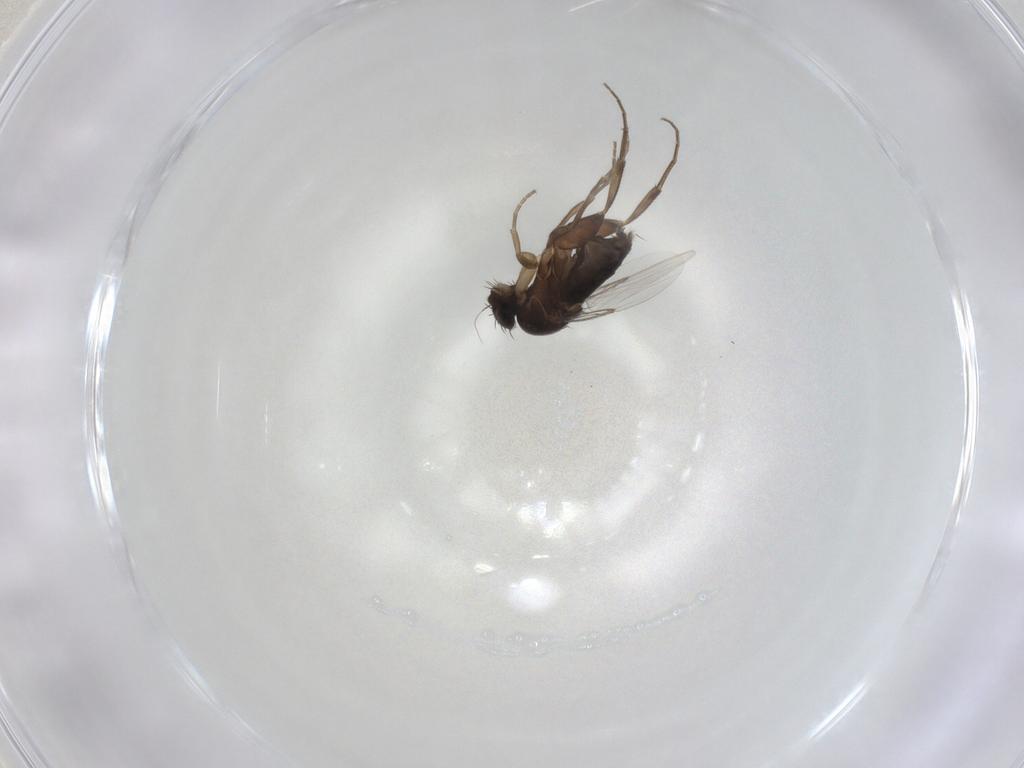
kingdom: Animalia
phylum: Arthropoda
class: Insecta
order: Diptera
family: Phoridae
